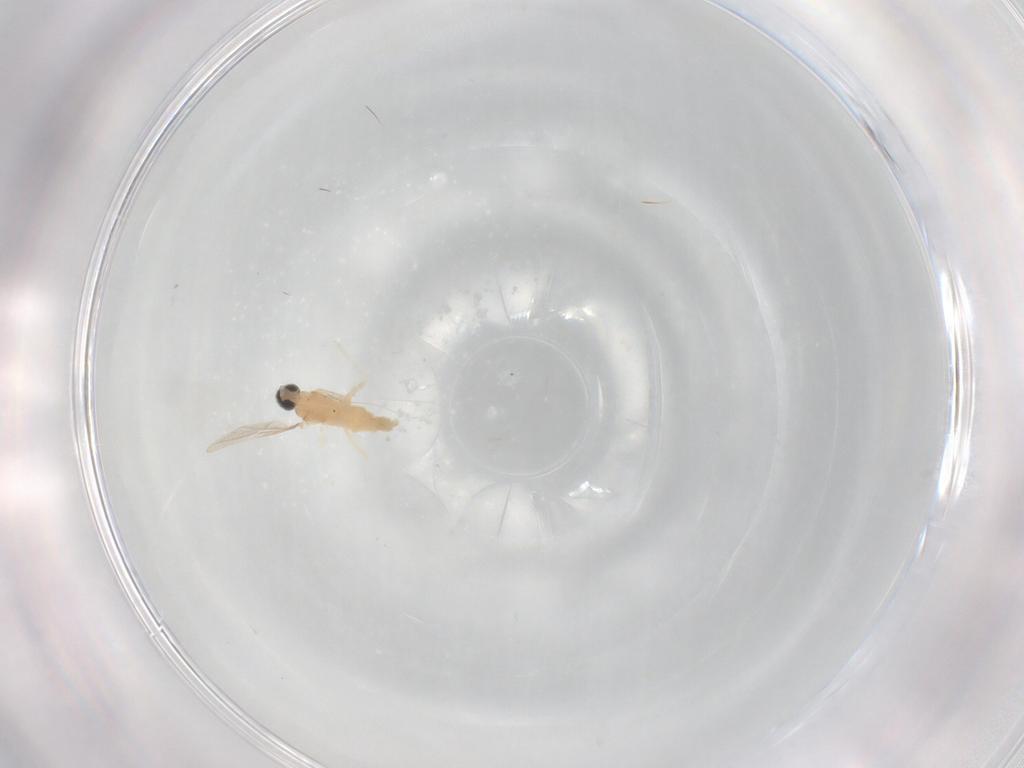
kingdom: Animalia
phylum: Arthropoda
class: Insecta
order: Diptera
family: Cecidomyiidae
